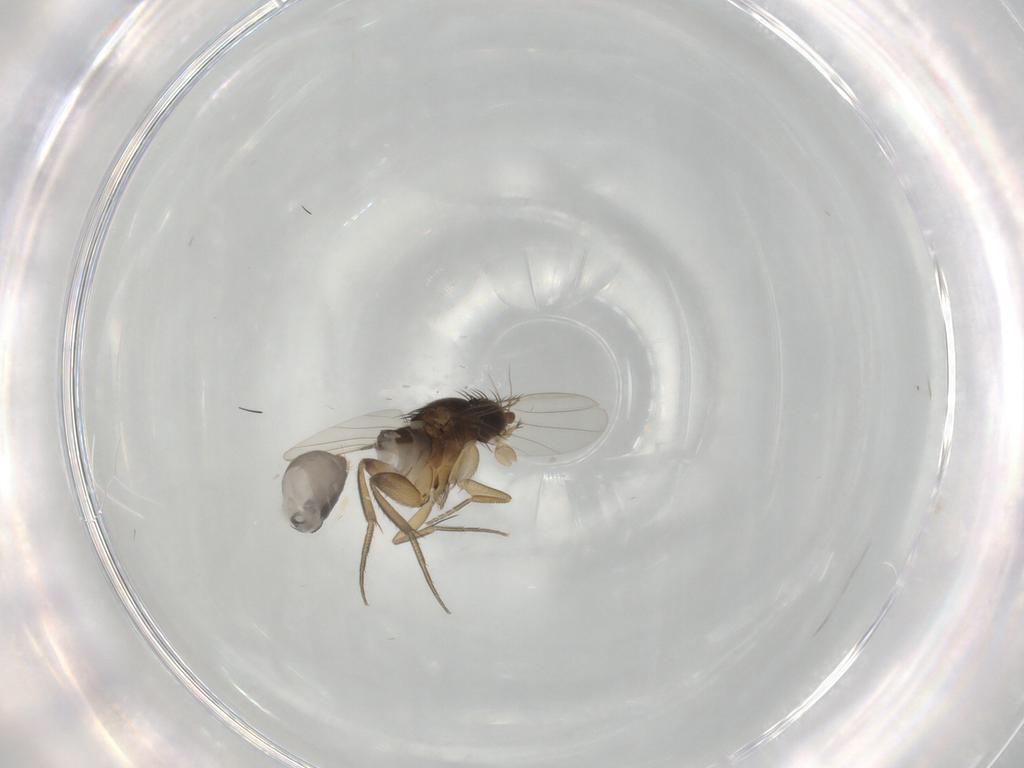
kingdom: Animalia
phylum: Arthropoda
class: Insecta
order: Diptera
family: Phoridae
